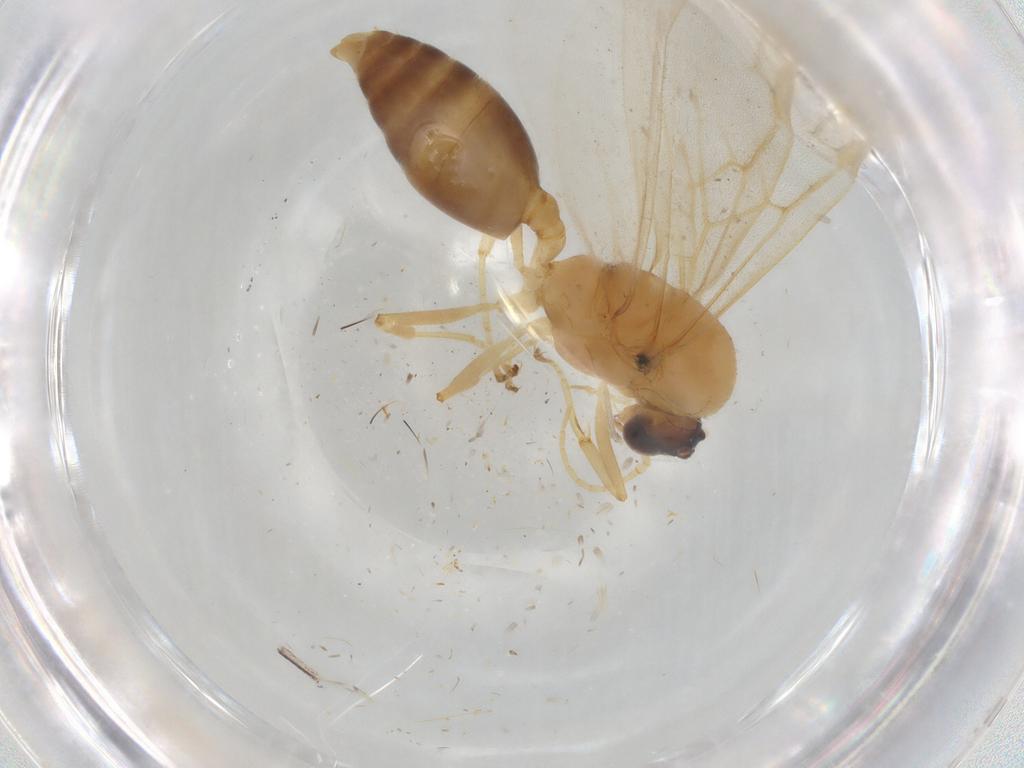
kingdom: Animalia
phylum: Arthropoda
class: Insecta
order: Hymenoptera
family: Formicidae
